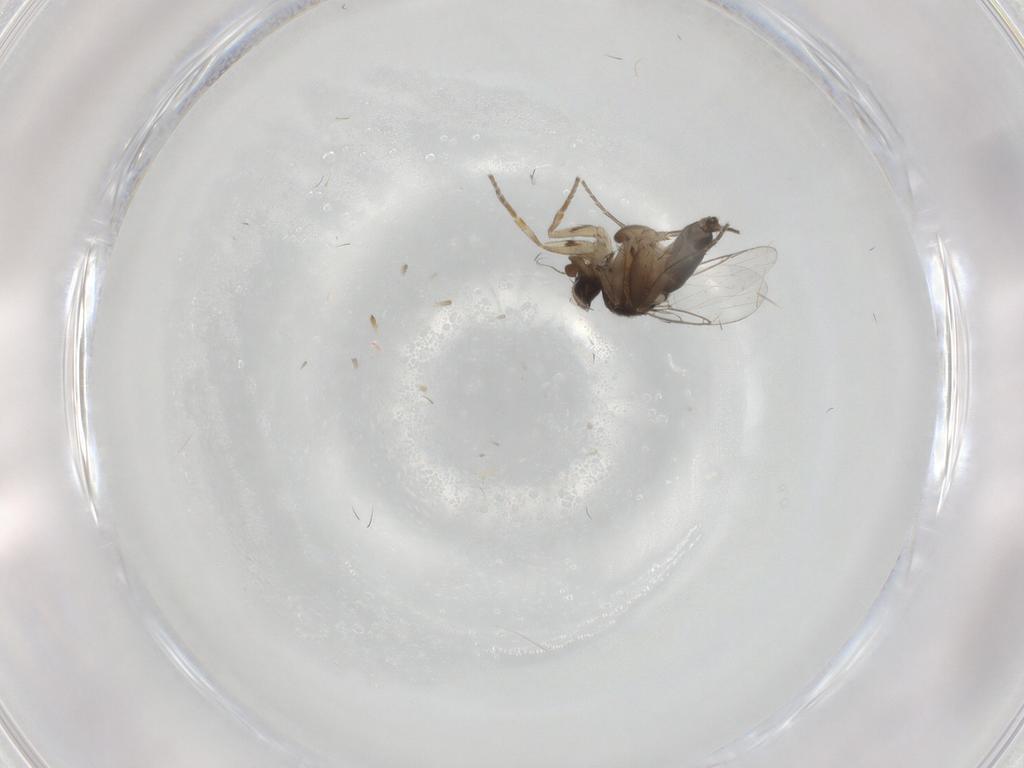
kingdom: Animalia
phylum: Arthropoda
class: Insecta
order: Diptera
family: Phoridae
